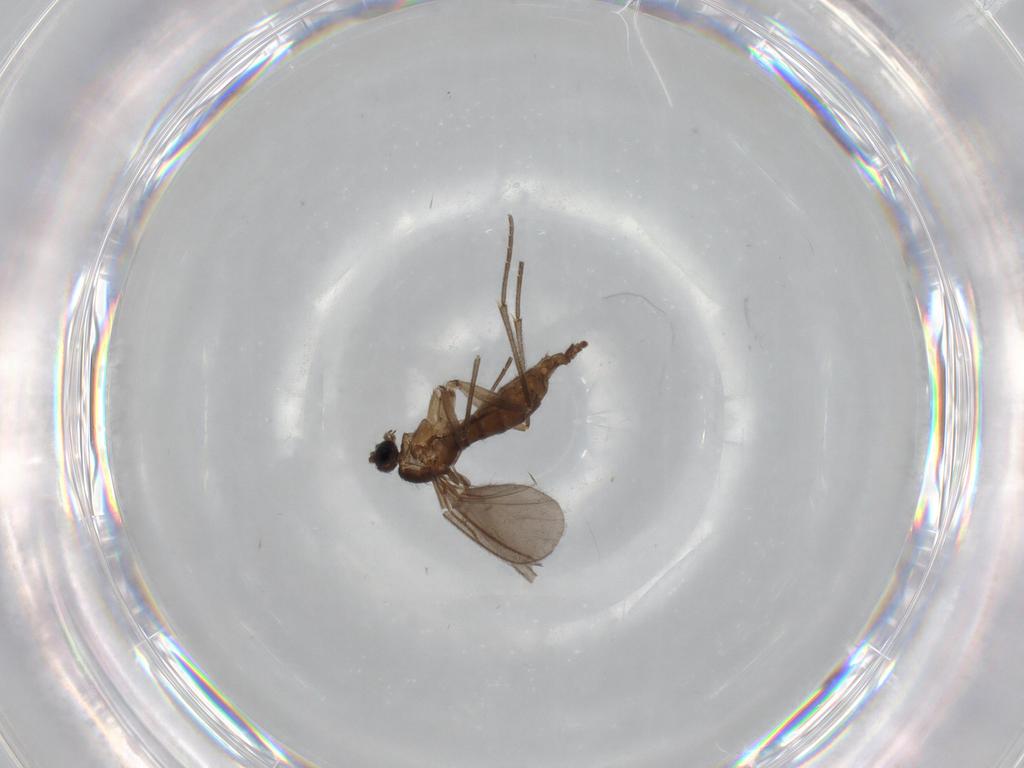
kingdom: Animalia
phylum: Arthropoda
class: Insecta
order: Diptera
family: Sciaridae
